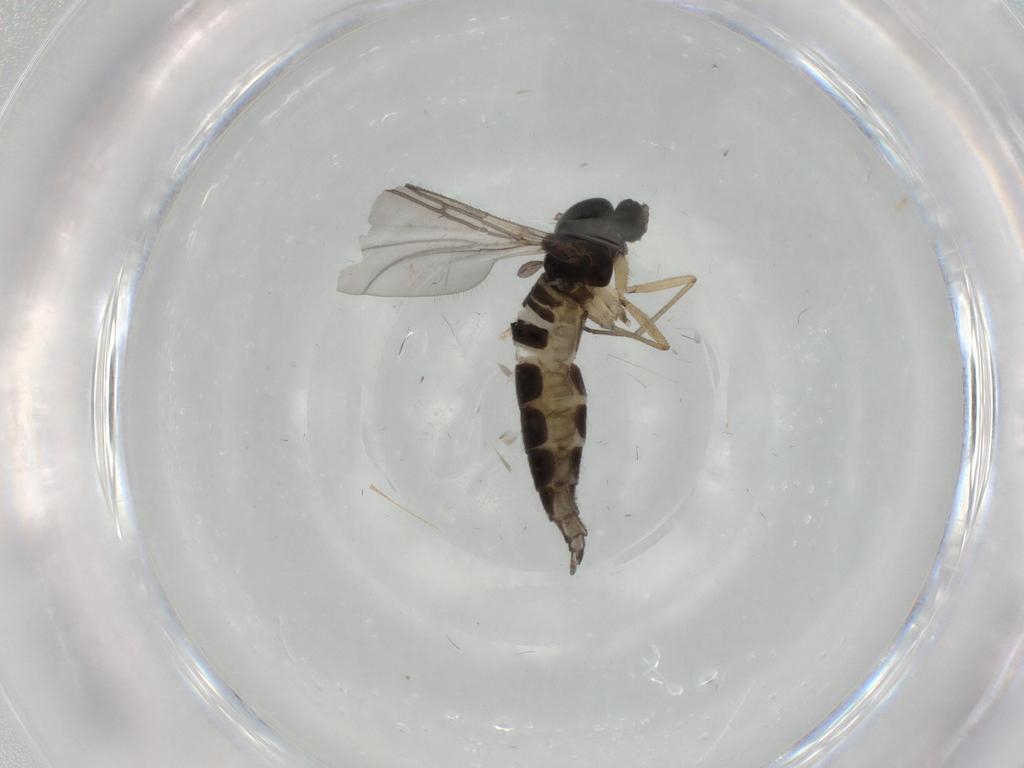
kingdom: Animalia
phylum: Arthropoda
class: Insecta
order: Diptera
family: Sciaridae
